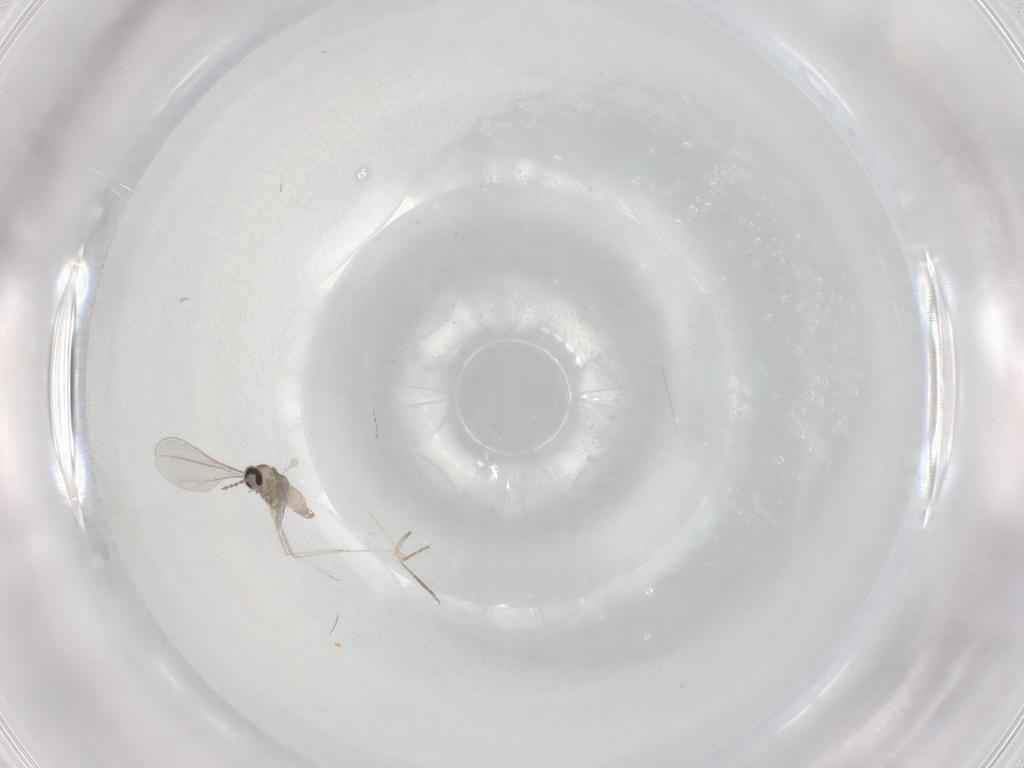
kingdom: Animalia
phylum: Arthropoda
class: Insecta
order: Diptera
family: Cecidomyiidae
